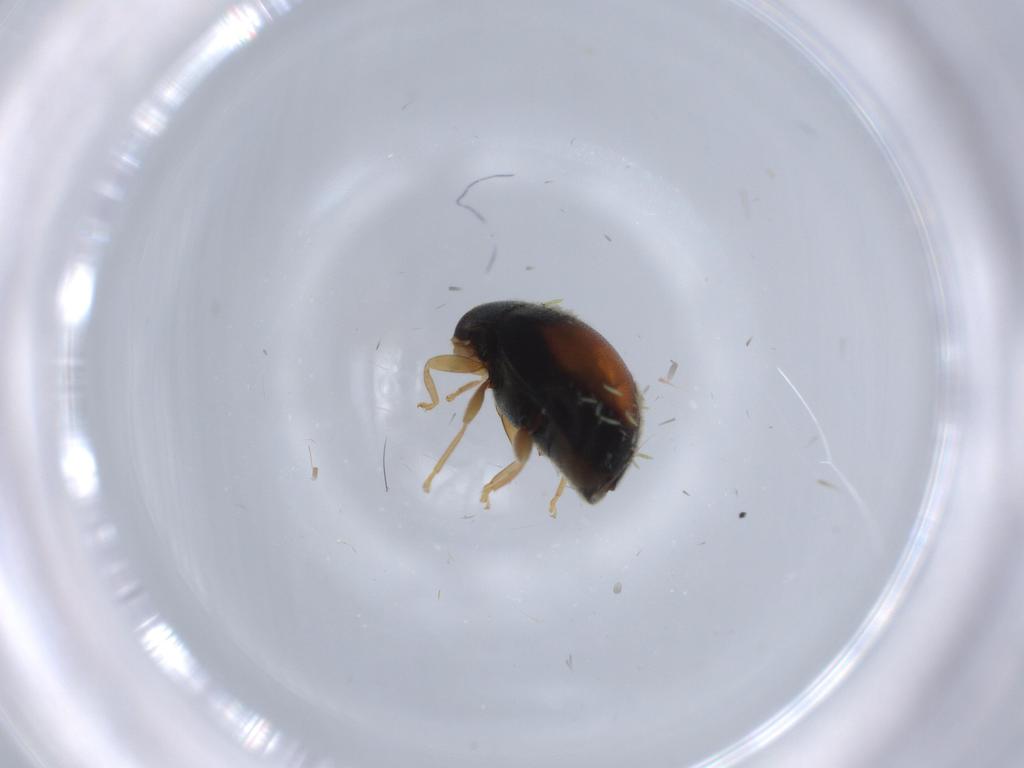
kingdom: Animalia
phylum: Arthropoda
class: Insecta
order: Coleoptera
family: Coccinellidae
